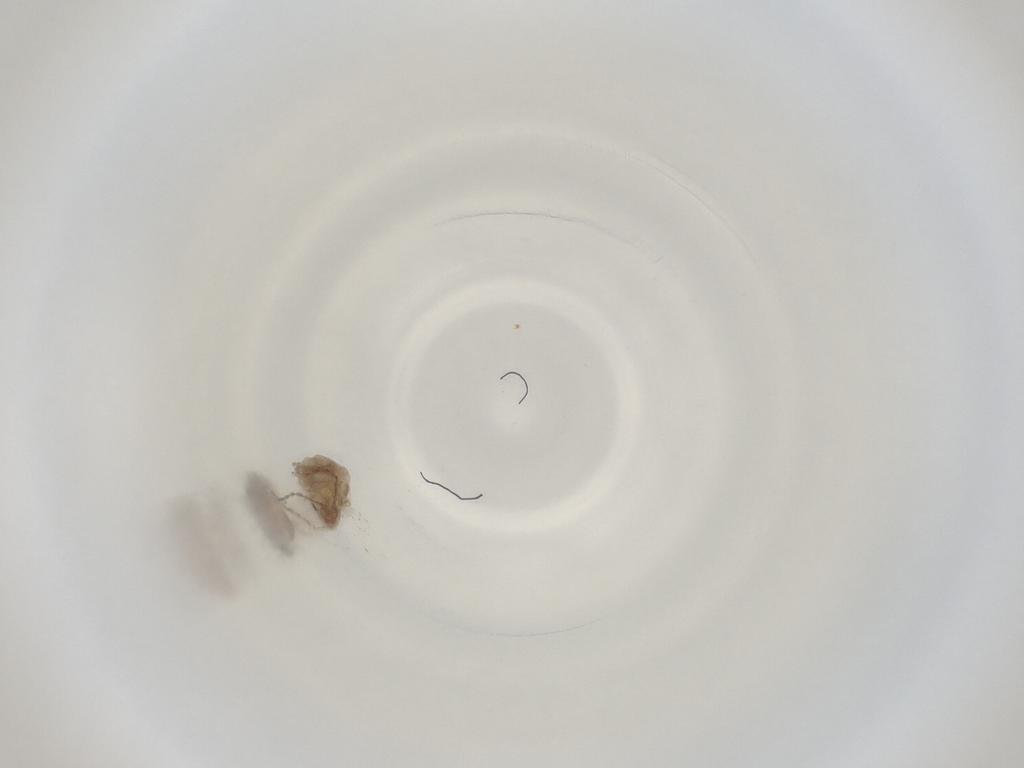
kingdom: Animalia
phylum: Arthropoda
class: Insecta
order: Diptera
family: Cecidomyiidae
